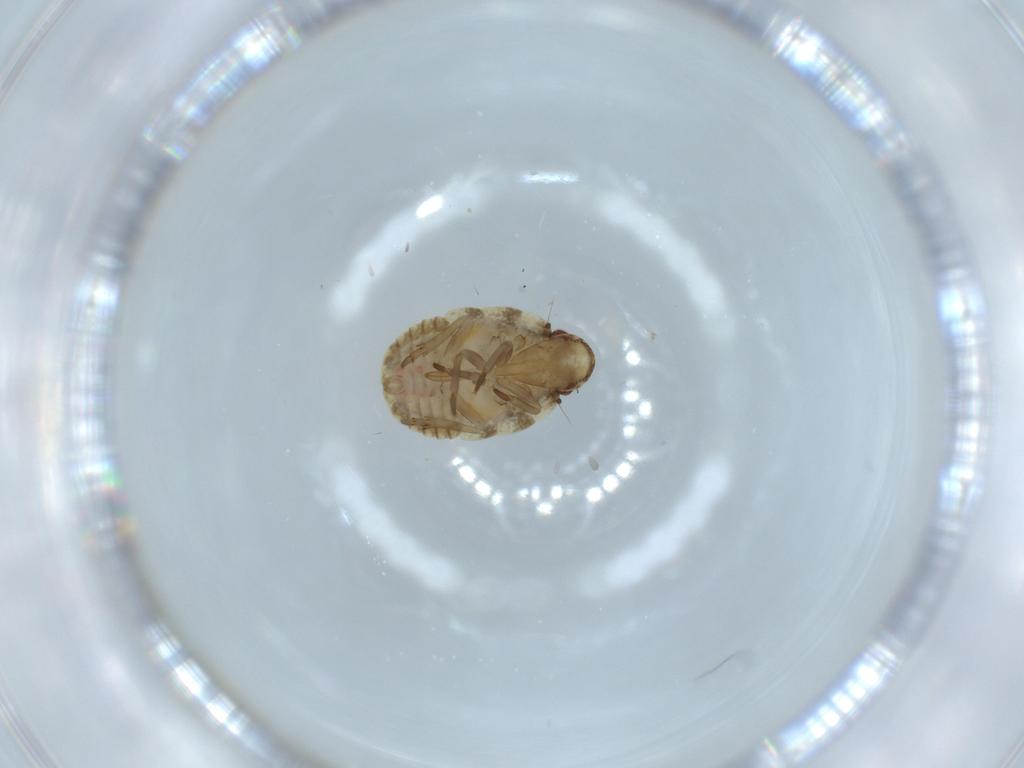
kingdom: Animalia
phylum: Arthropoda
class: Insecta
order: Hemiptera
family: Flatidae
